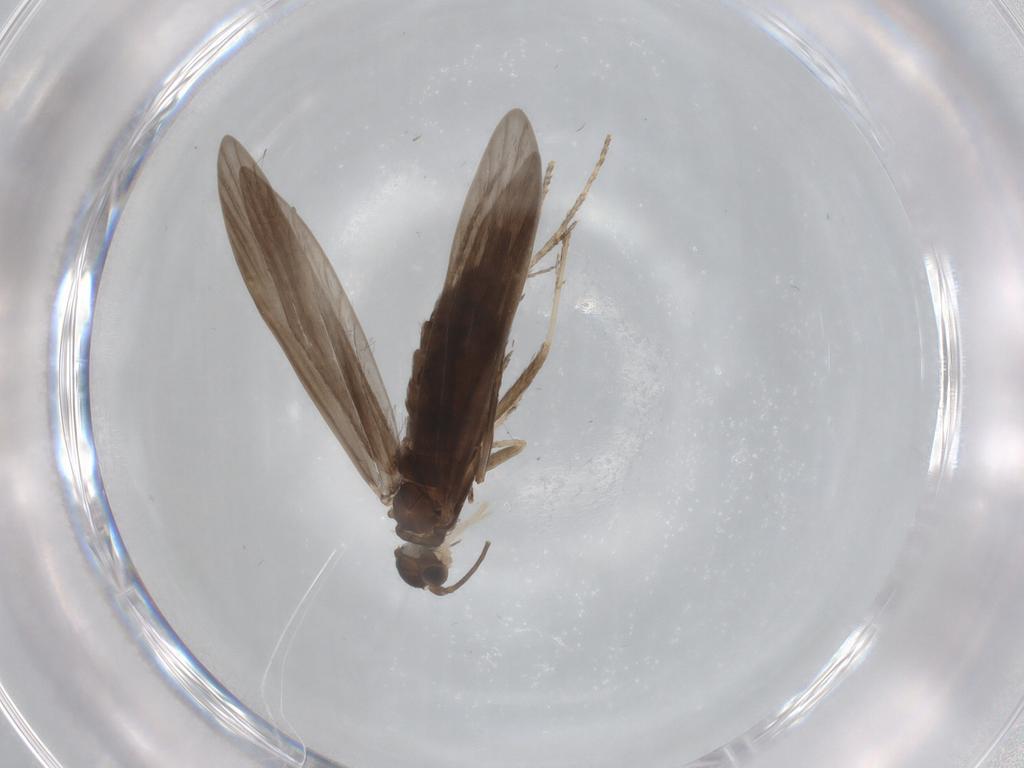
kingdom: Animalia
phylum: Arthropoda
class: Insecta
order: Trichoptera
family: Xiphocentronidae
